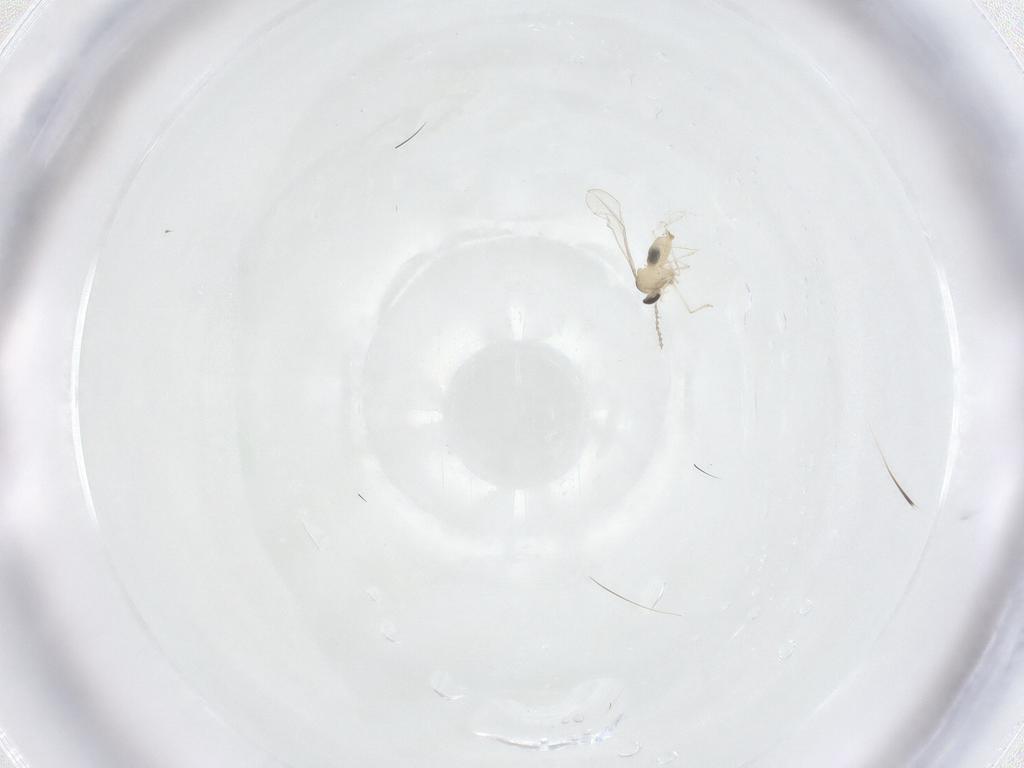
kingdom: Animalia
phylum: Arthropoda
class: Insecta
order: Diptera
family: Cecidomyiidae
